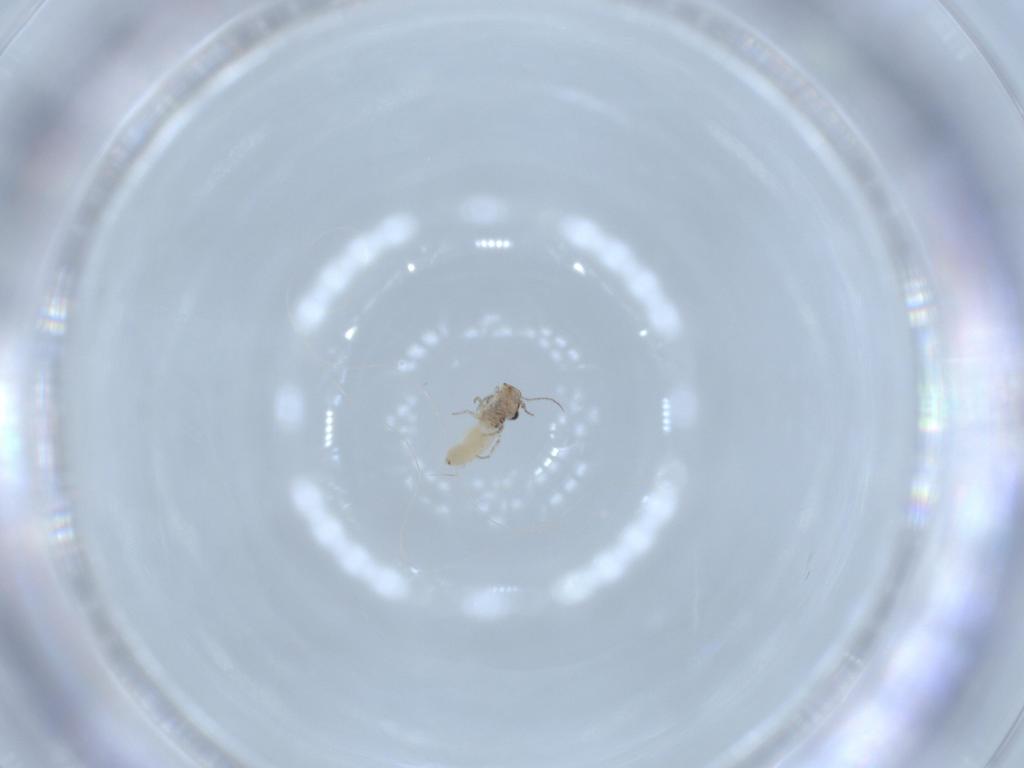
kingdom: Animalia
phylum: Arthropoda
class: Insecta
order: Psocodea
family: Lepidopsocidae
